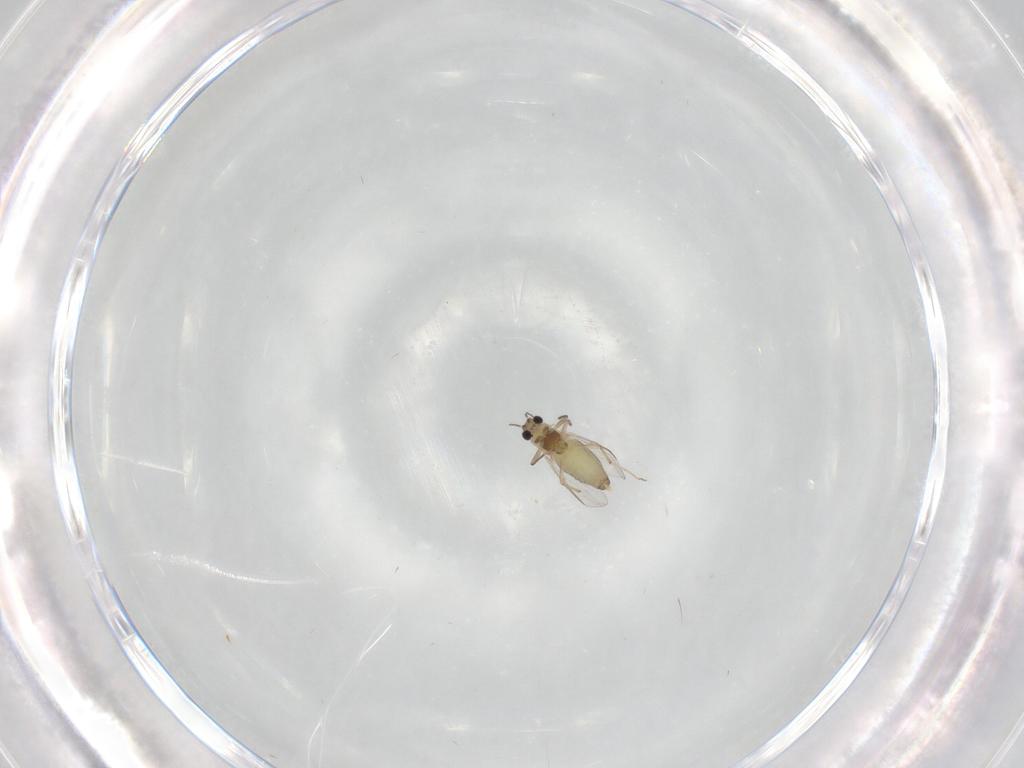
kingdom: Animalia
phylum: Arthropoda
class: Insecta
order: Diptera
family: Chironomidae
